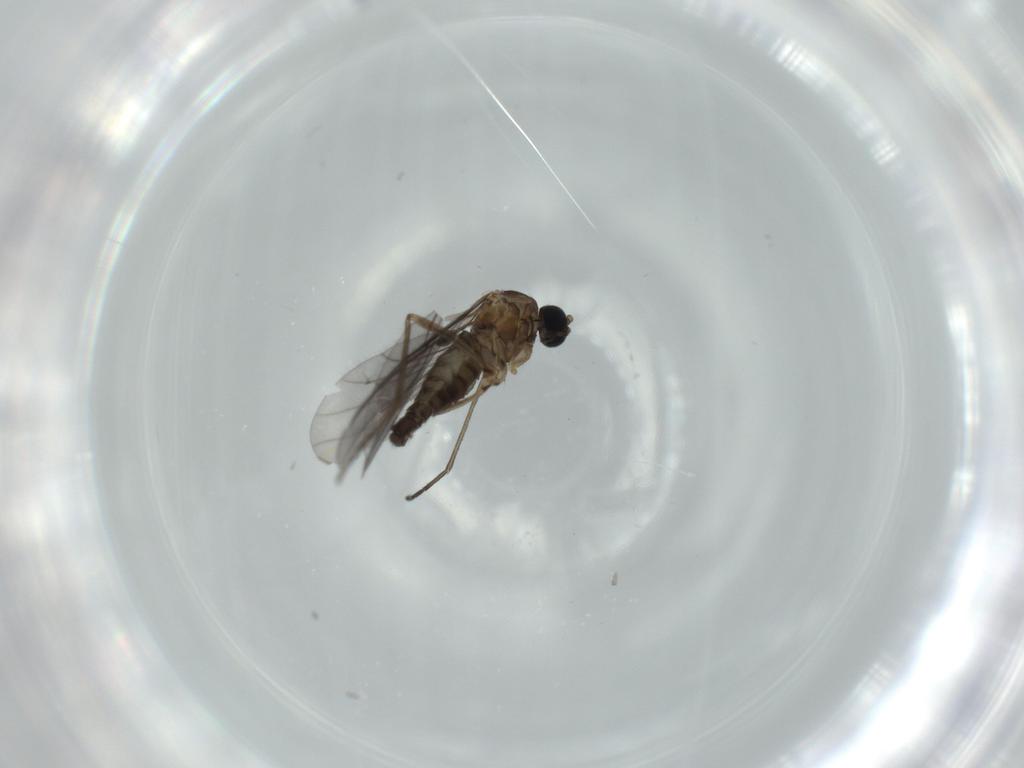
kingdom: Animalia
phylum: Arthropoda
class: Insecta
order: Diptera
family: Sciaridae
